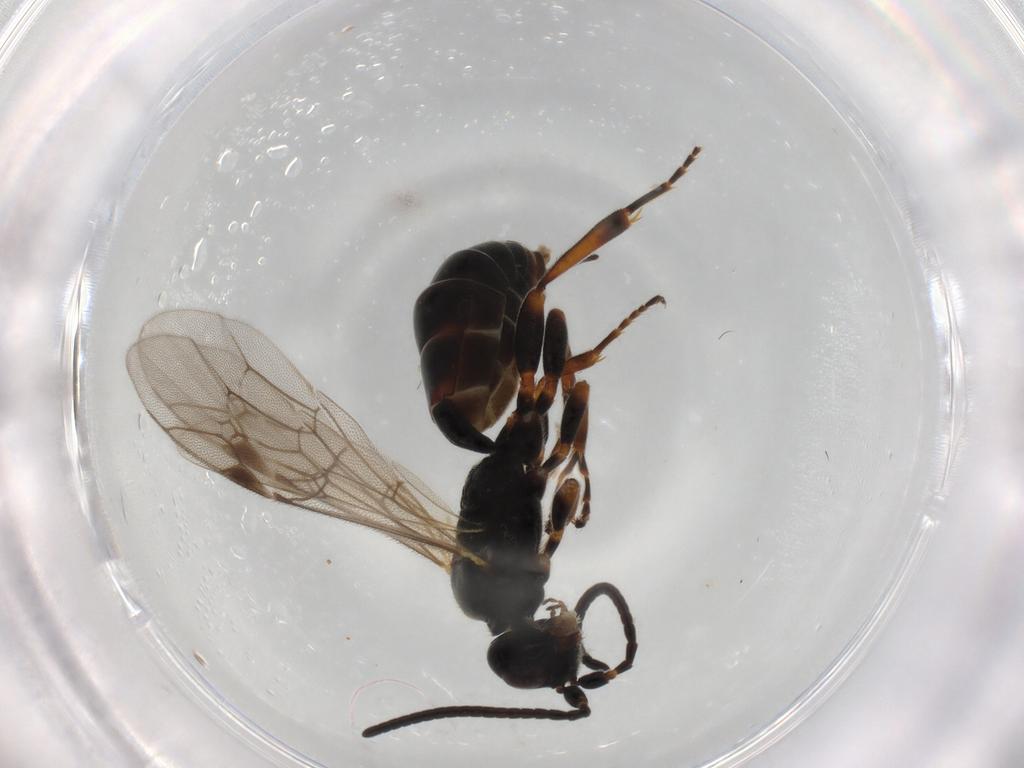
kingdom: Animalia
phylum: Arthropoda
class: Insecta
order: Hymenoptera
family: Ichneumonidae
